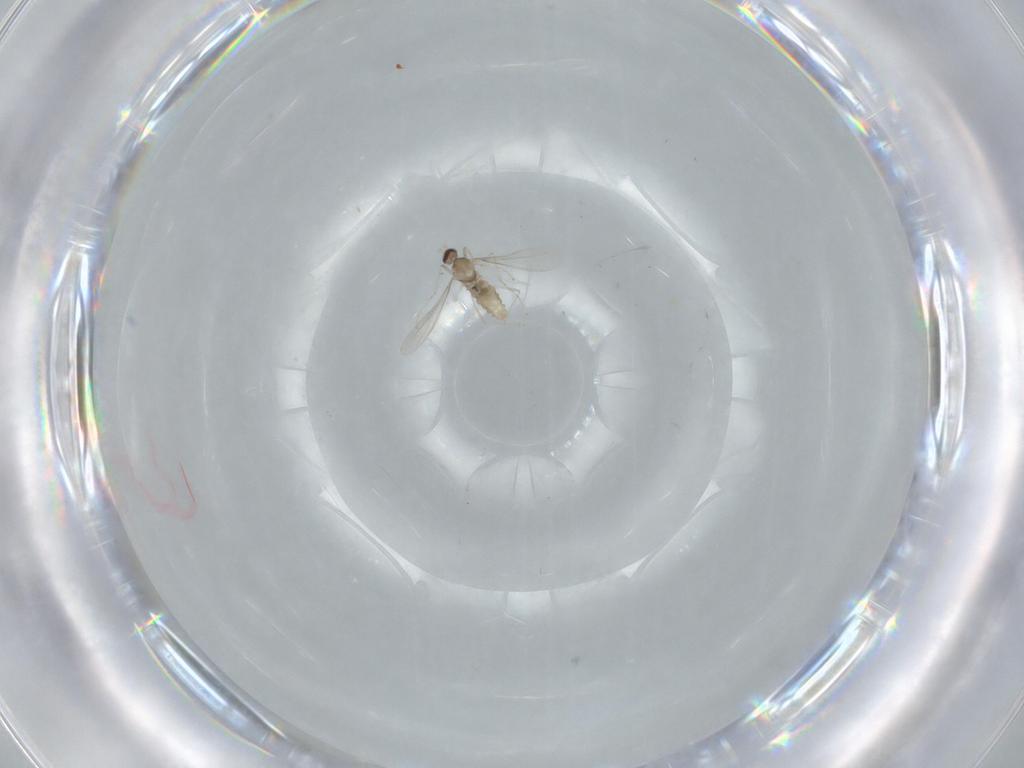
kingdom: Animalia
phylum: Arthropoda
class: Insecta
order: Diptera
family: Cecidomyiidae
